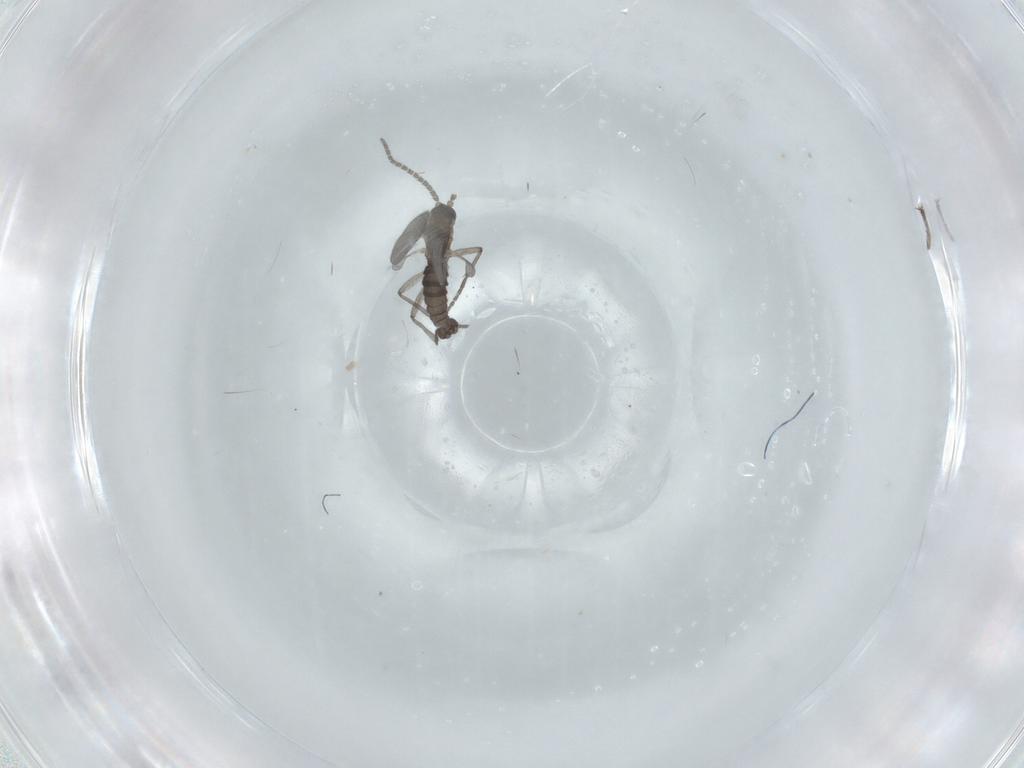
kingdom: Animalia
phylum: Arthropoda
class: Insecta
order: Diptera
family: Sciaridae
